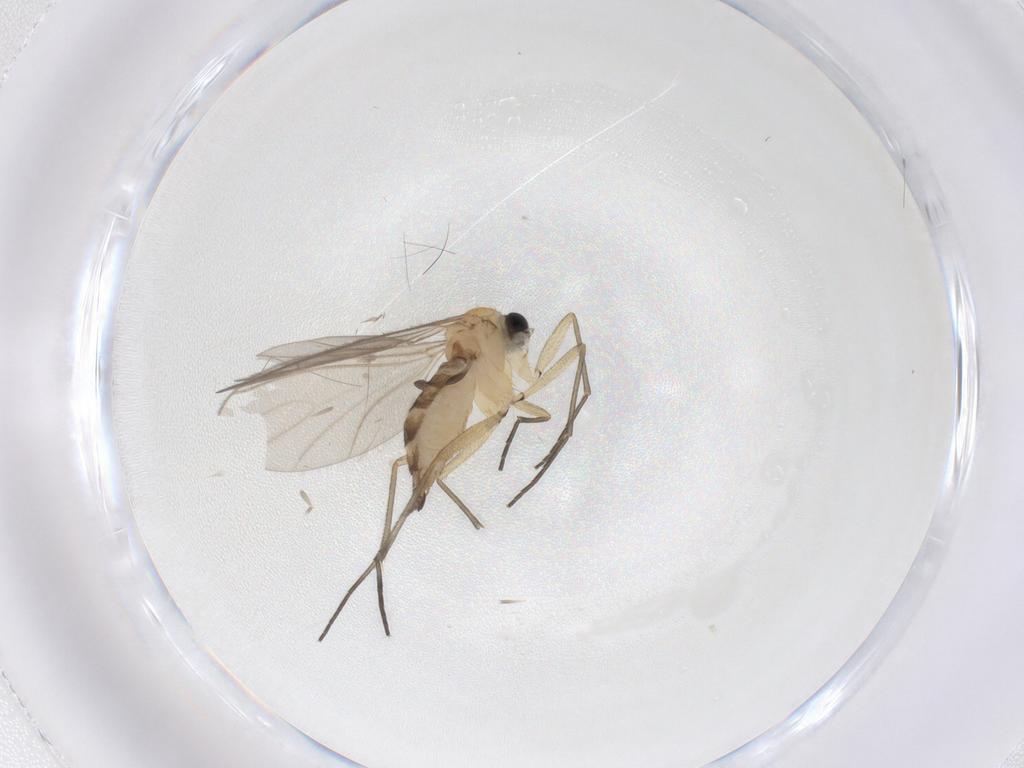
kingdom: Animalia
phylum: Arthropoda
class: Insecta
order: Diptera
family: Sciaridae
